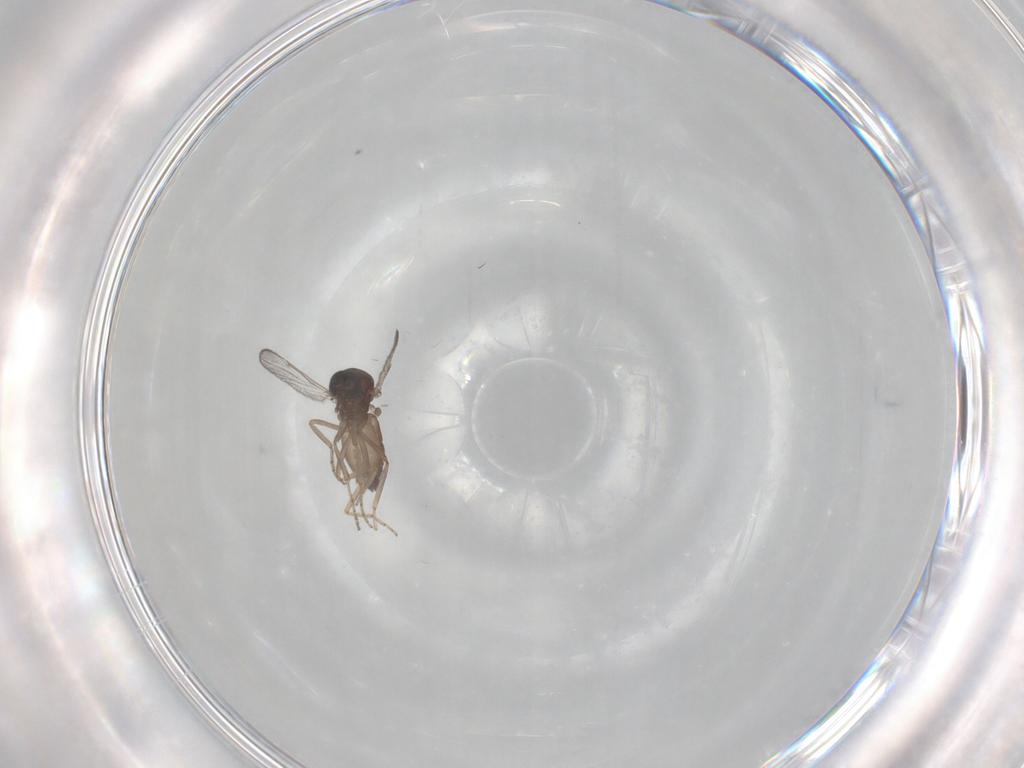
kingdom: Animalia
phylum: Arthropoda
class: Insecta
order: Diptera
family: Ceratopogonidae
